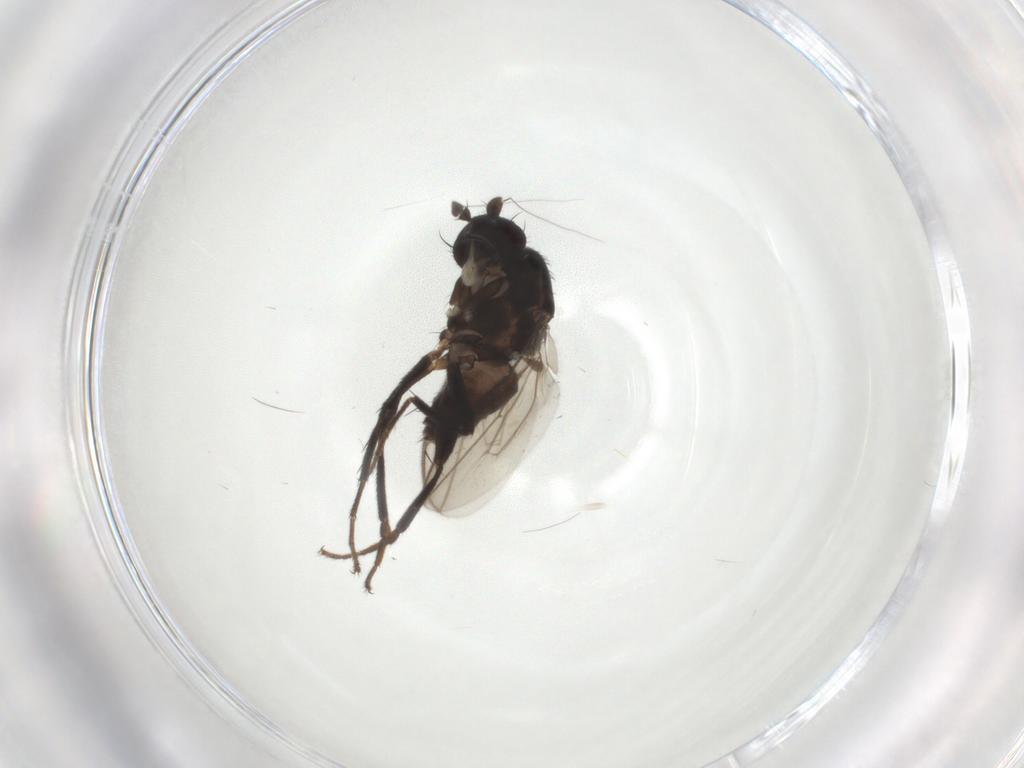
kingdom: Animalia
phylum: Arthropoda
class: Insecta
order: Diptera
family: Sphaeroceridae
